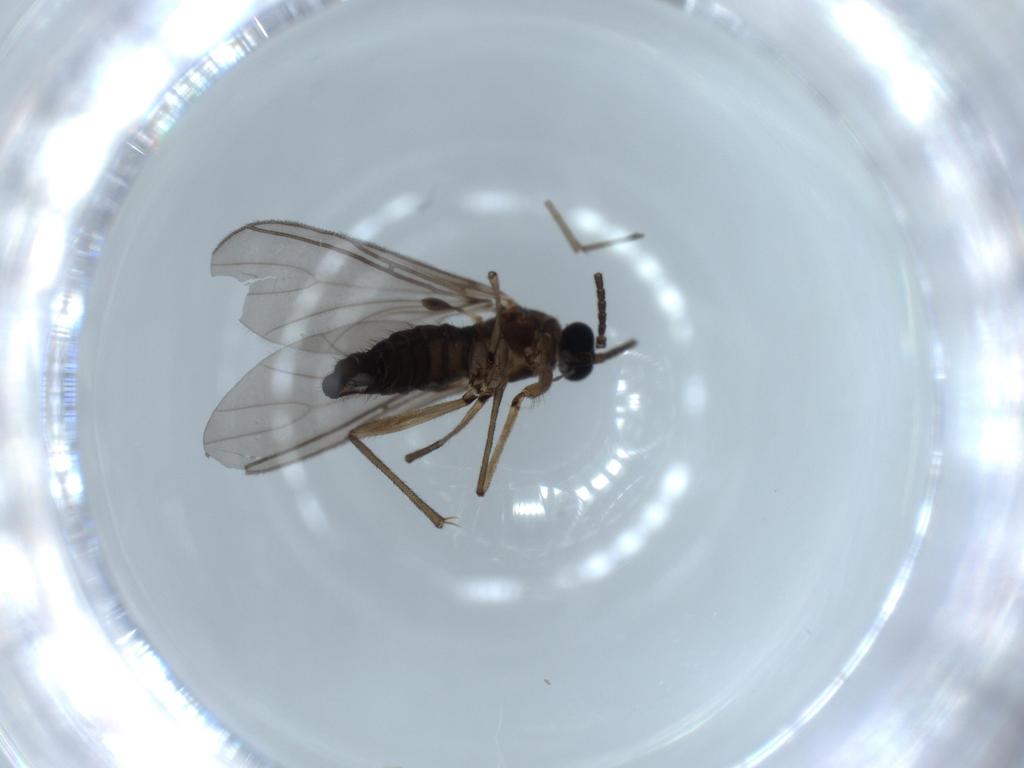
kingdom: Animalia
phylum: Arthropoda
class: Insecta
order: Diptera
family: Sciaridae
